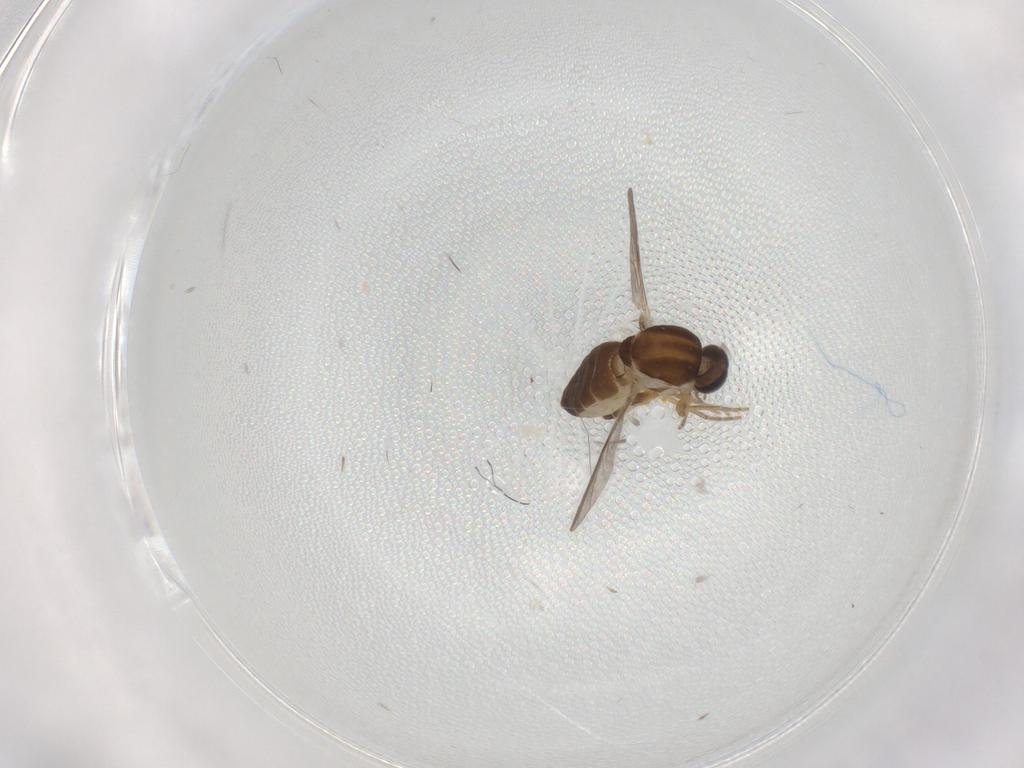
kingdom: Animalia
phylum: Arthropoda
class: Insecta
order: Diptera
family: Ceratopogonidae
